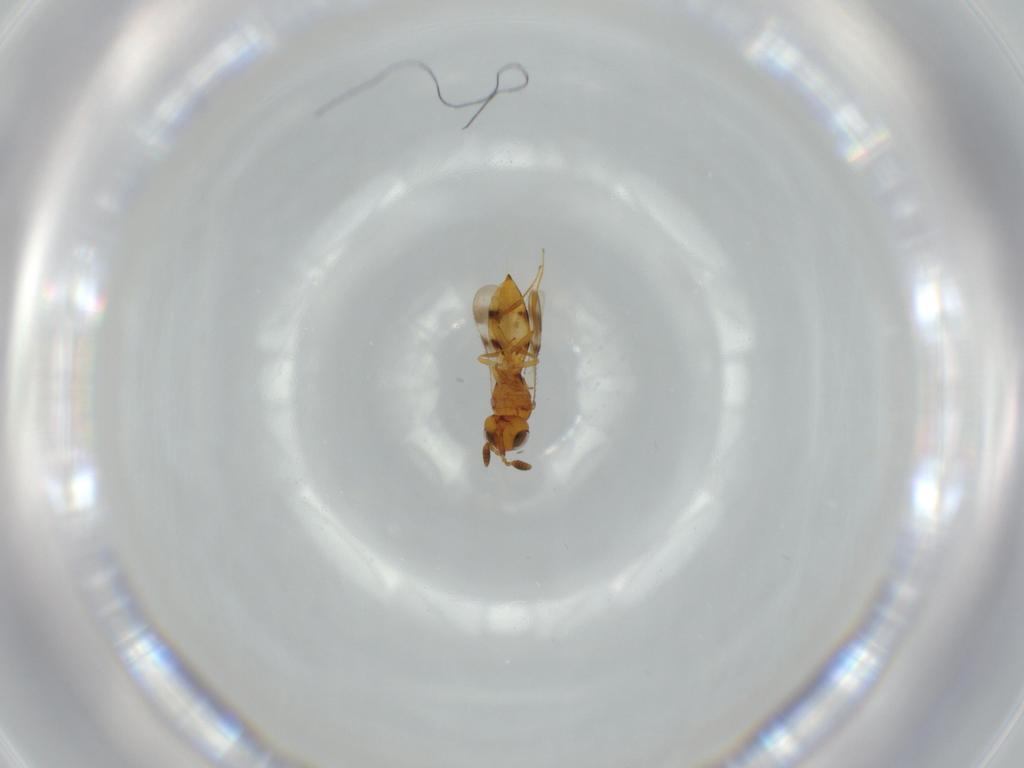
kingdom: Animalia
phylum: Arthropoda
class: Insecta
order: Hymenoptera
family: Scelionidae
